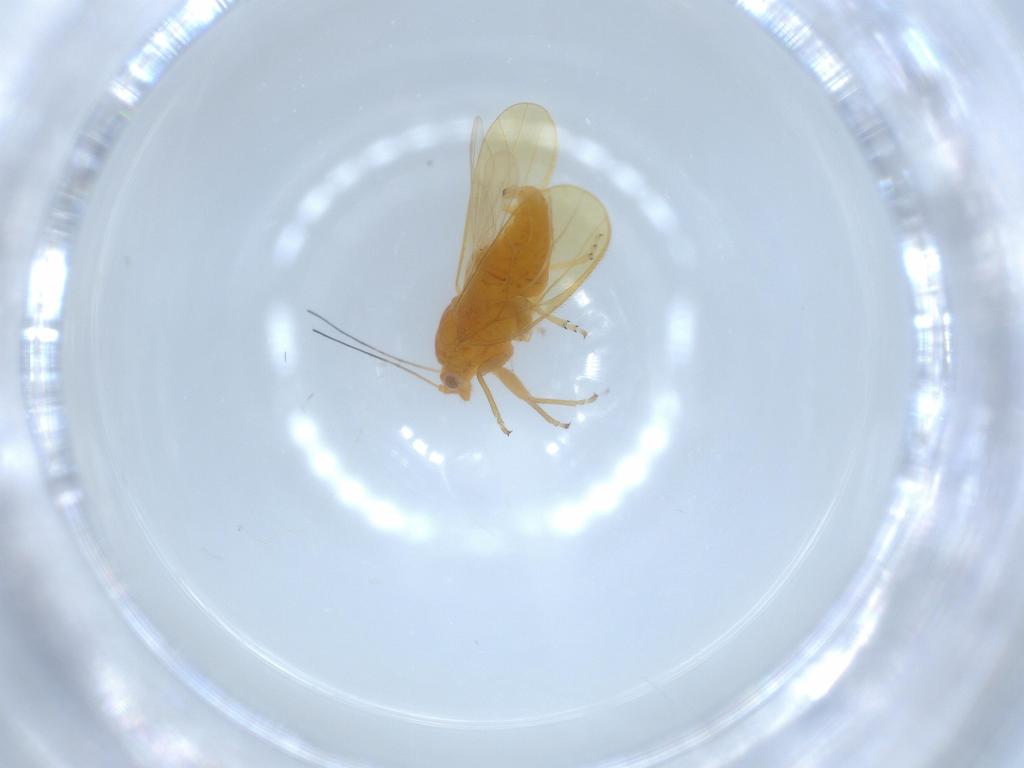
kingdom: Animalia
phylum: Arthropoda
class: Insecta
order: Hemiptera
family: Psyllidae
